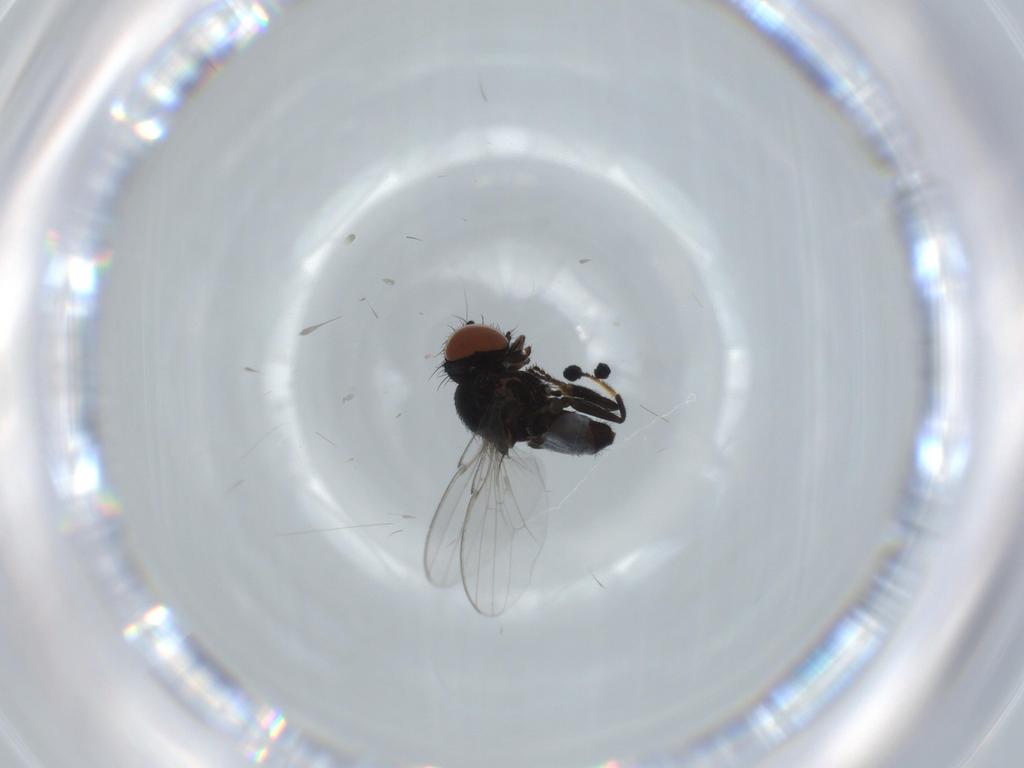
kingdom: Animalia
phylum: Arthropoda
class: Insecta
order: Diptera
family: Milichiidae
